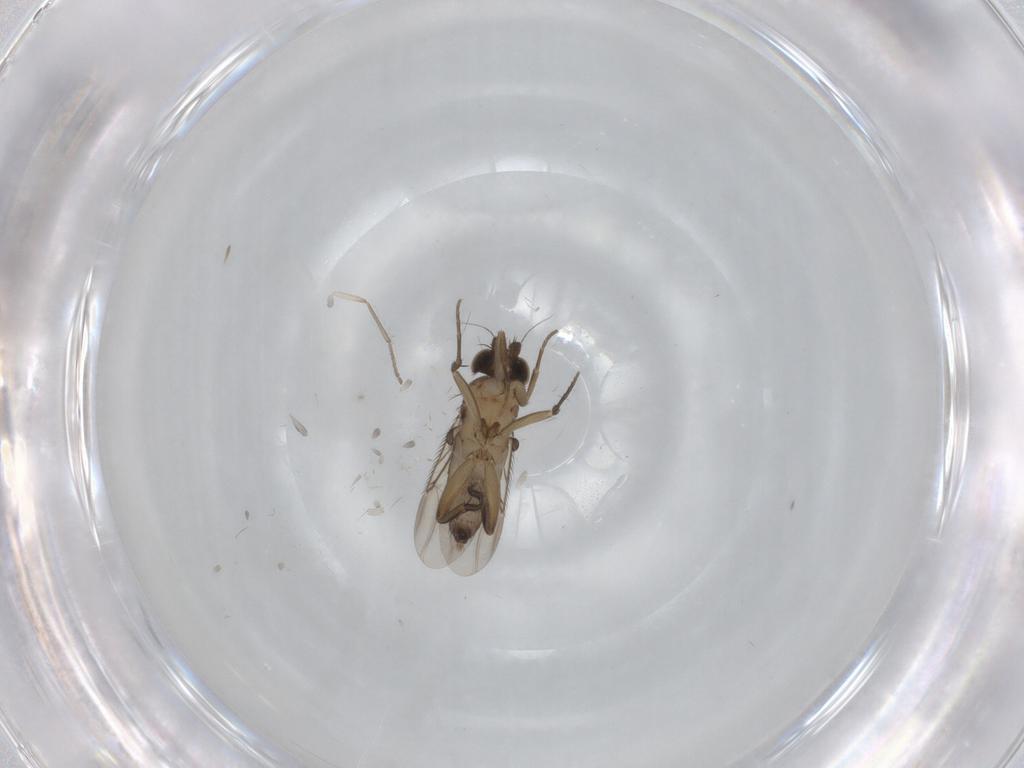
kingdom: Animalia
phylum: Arthropoda
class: Insecta
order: Diptera
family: Phoridae
